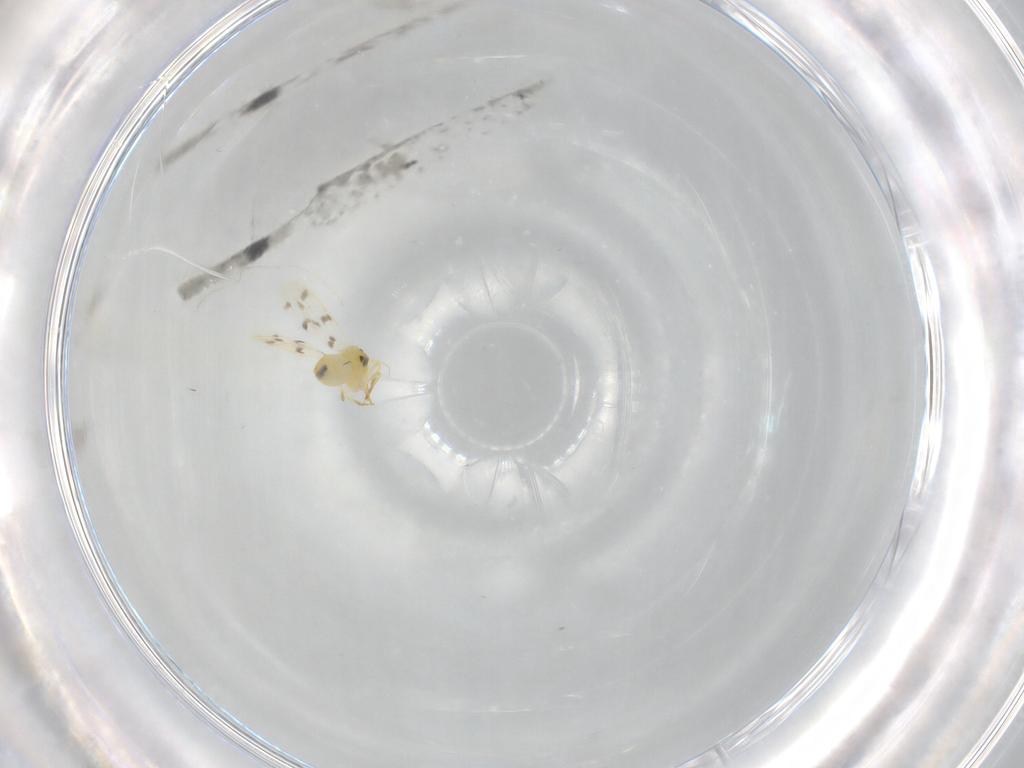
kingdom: Animalia
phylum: Arthropoda
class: Insecta
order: Hemiptera
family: Aleyrodidae
